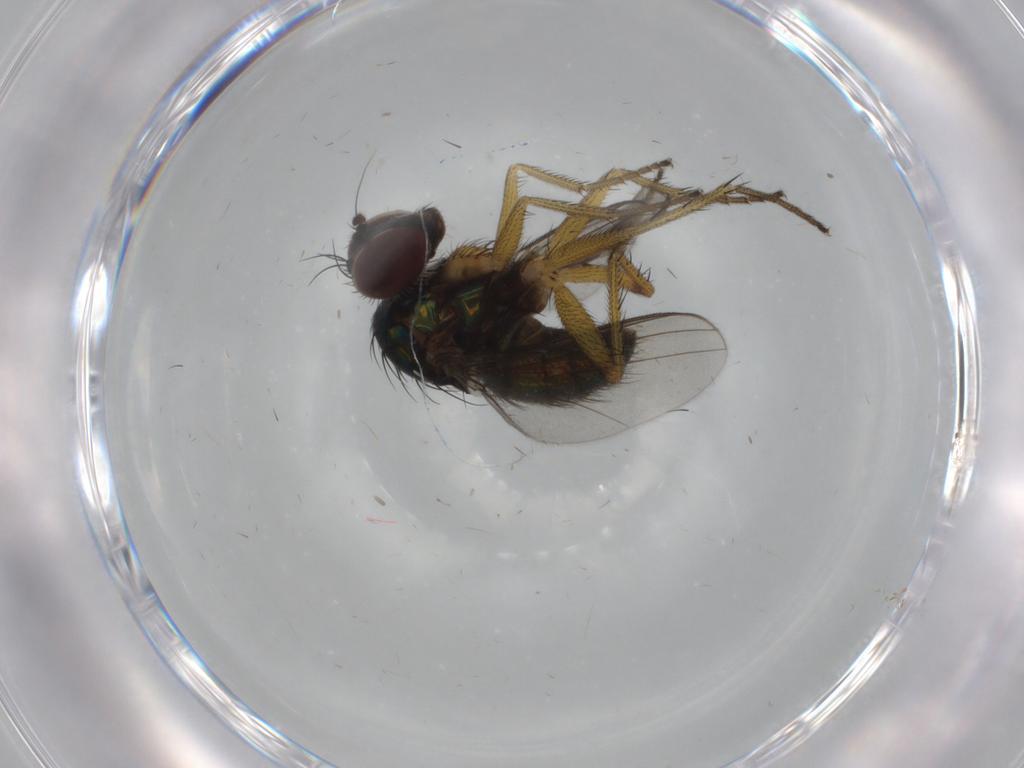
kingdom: Animalia
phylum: Arthropoda
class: Insecta
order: Diptera
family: Dolichopodidae
